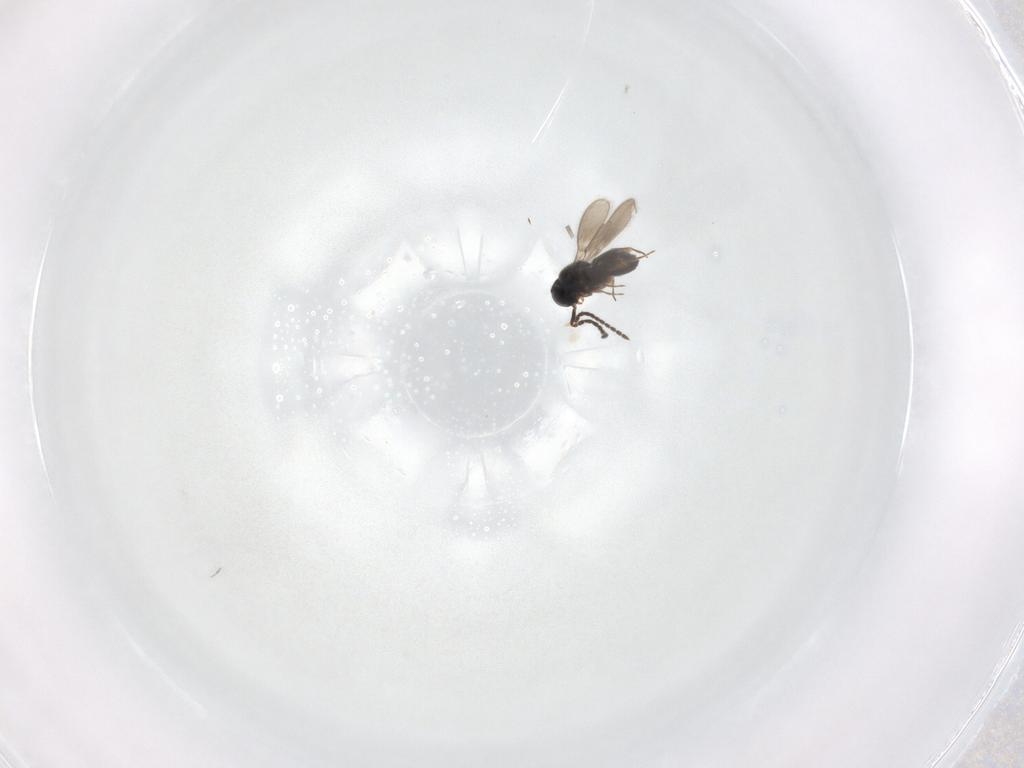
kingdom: Animalia
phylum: Arthropoda
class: Insecta
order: Hymenoptera
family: Scelionidae
